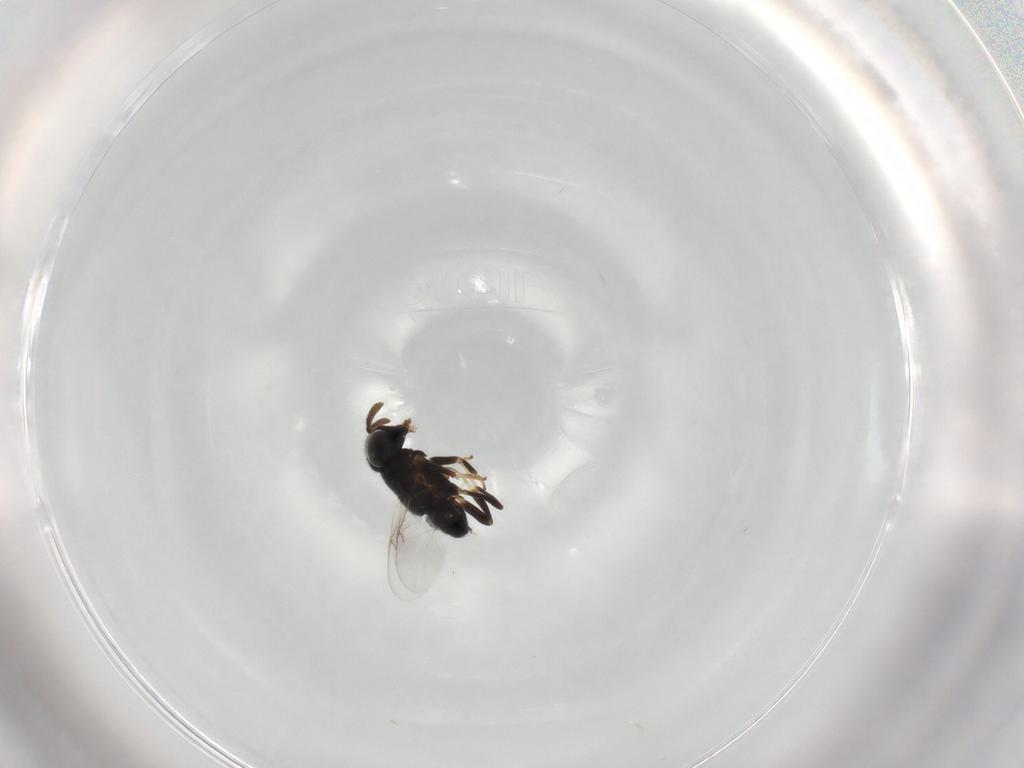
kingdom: Animalia
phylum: Arthropoda
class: Insecta
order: Hymenoptera
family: Encyrtidae
